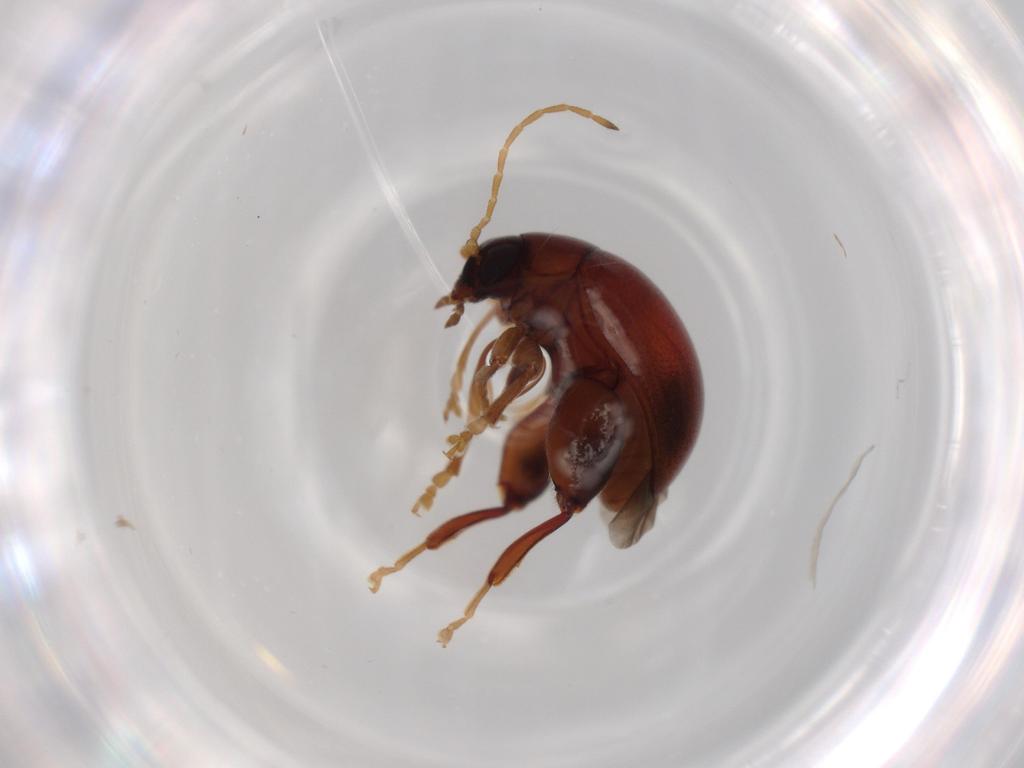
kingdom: Animalia
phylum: Arthropoda
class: Insecta
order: Coleoptera
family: Chrysomelidae
